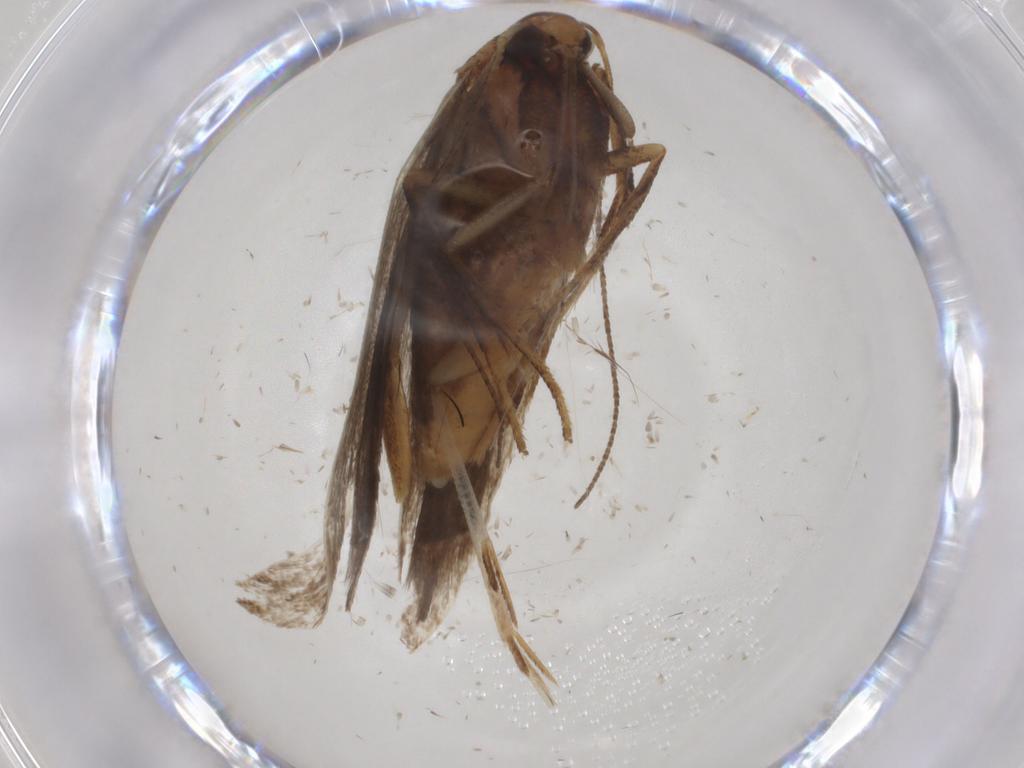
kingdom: Animalia
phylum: Arthropoda
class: Insecta
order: Lepidoptera
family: Gelechiidae
